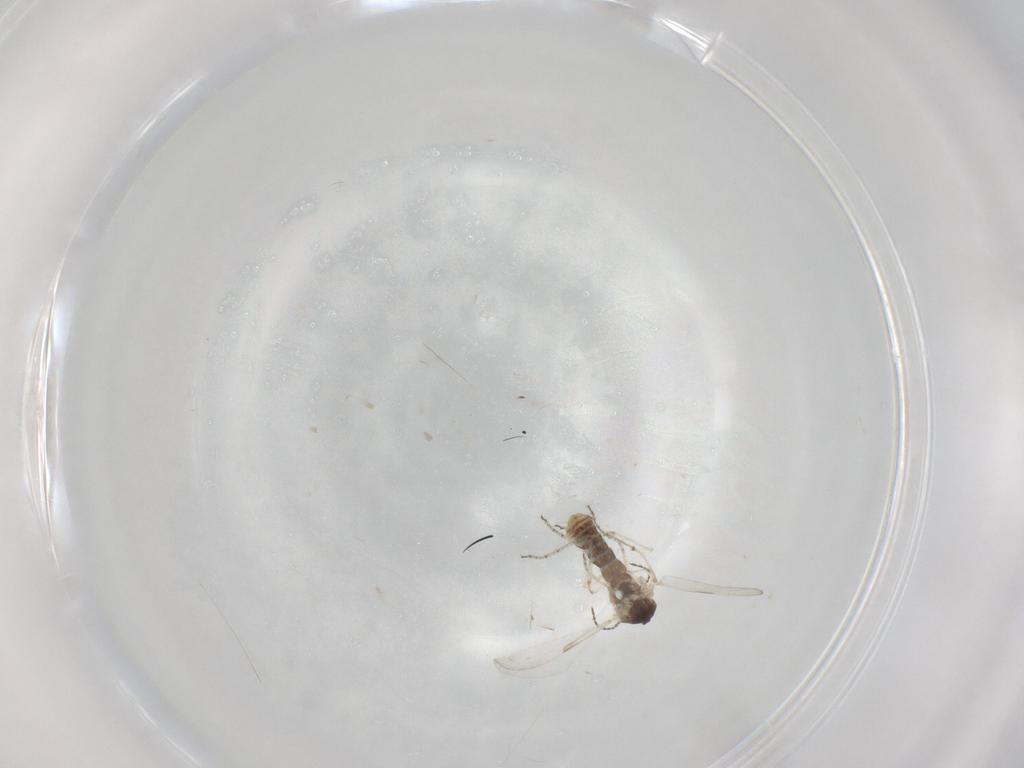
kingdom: Animalia
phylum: Arthropoda
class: Insecta
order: Diptera
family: Ceratopogonidae
